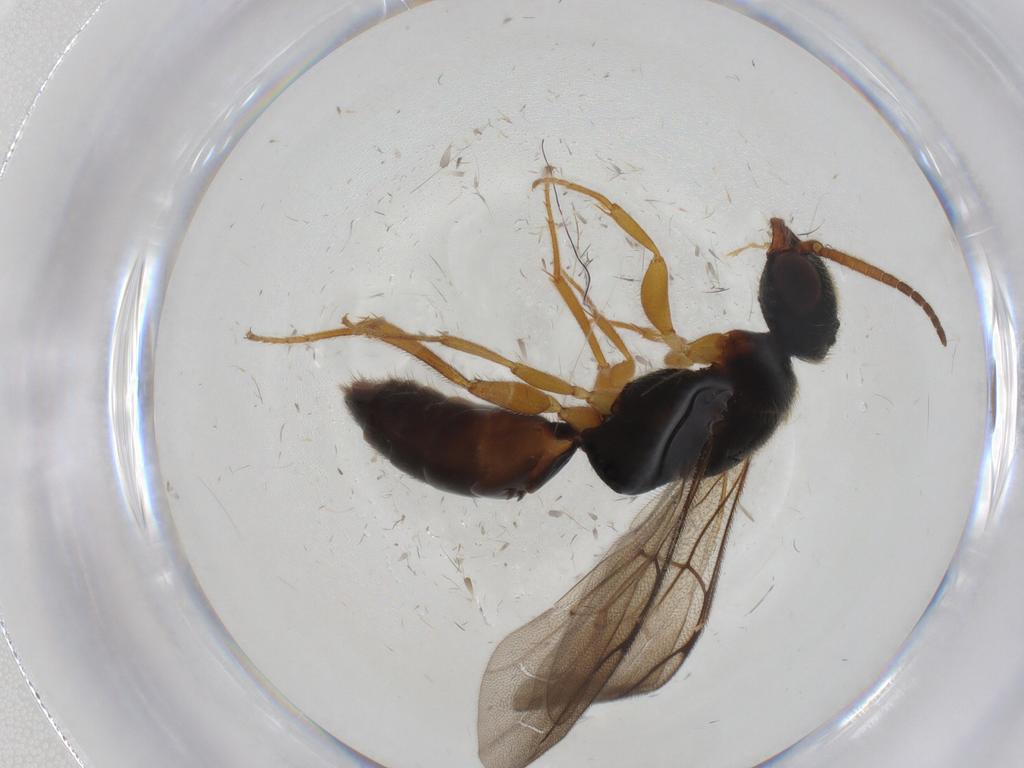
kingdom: Animalia
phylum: Arthropoda
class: Insecta
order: Hymenoptera
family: Bethylidae
